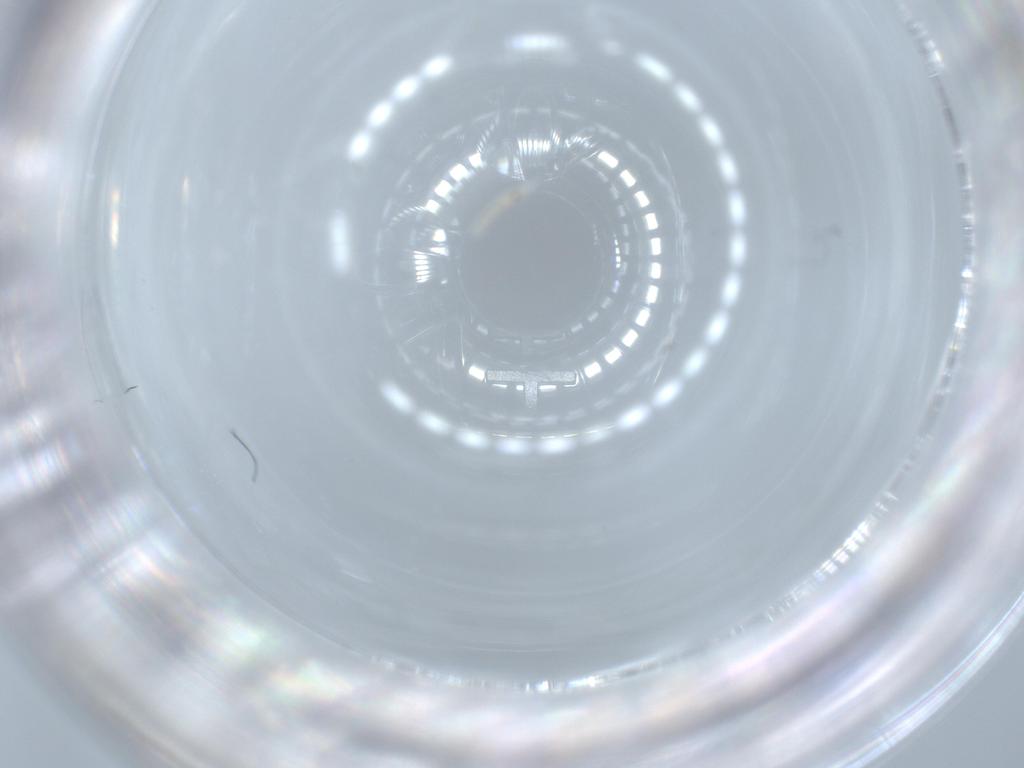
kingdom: Animalia
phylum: Arthropoda
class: Insecta
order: Diptera
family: Cecidomyiidae
